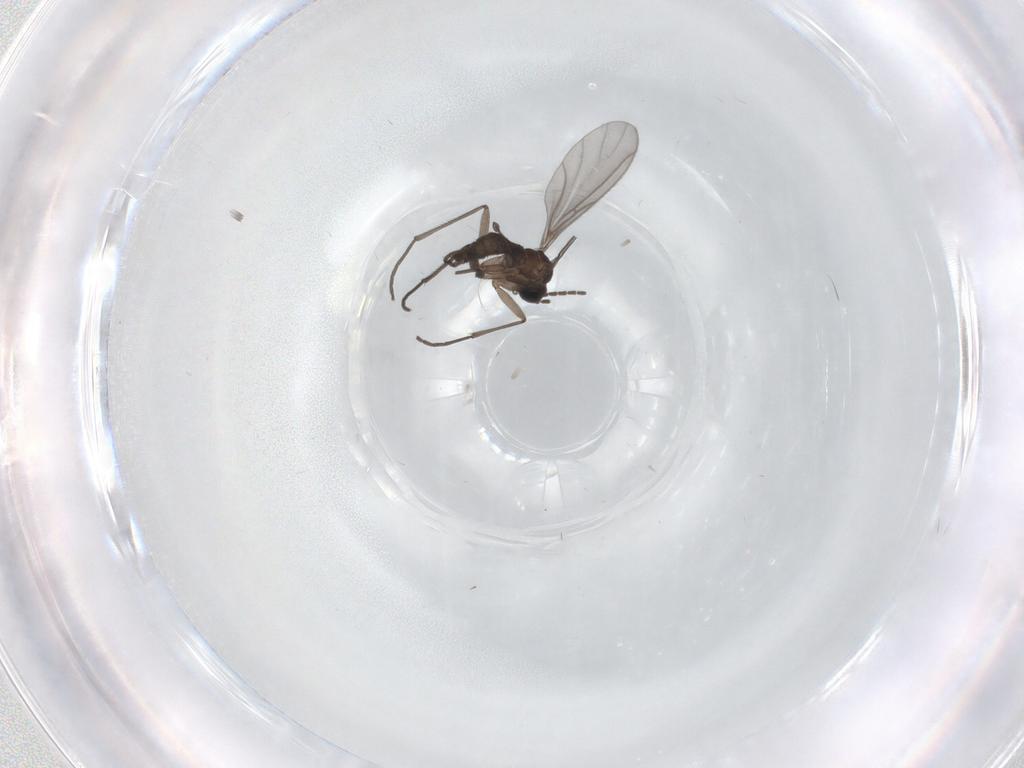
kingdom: Animalia
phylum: Arthropoda
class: Insecta
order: Diptera
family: Sciaridae
